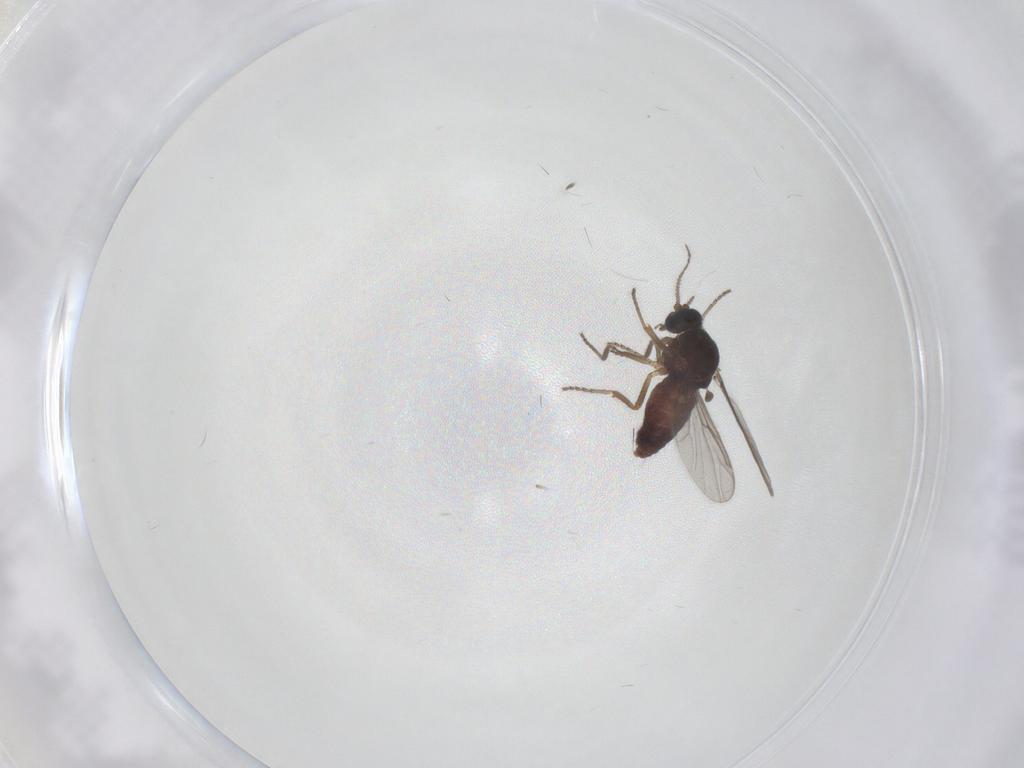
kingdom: Animalia
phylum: Arthropoda
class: Insecta
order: Diptera
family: Ceratopogonidae
